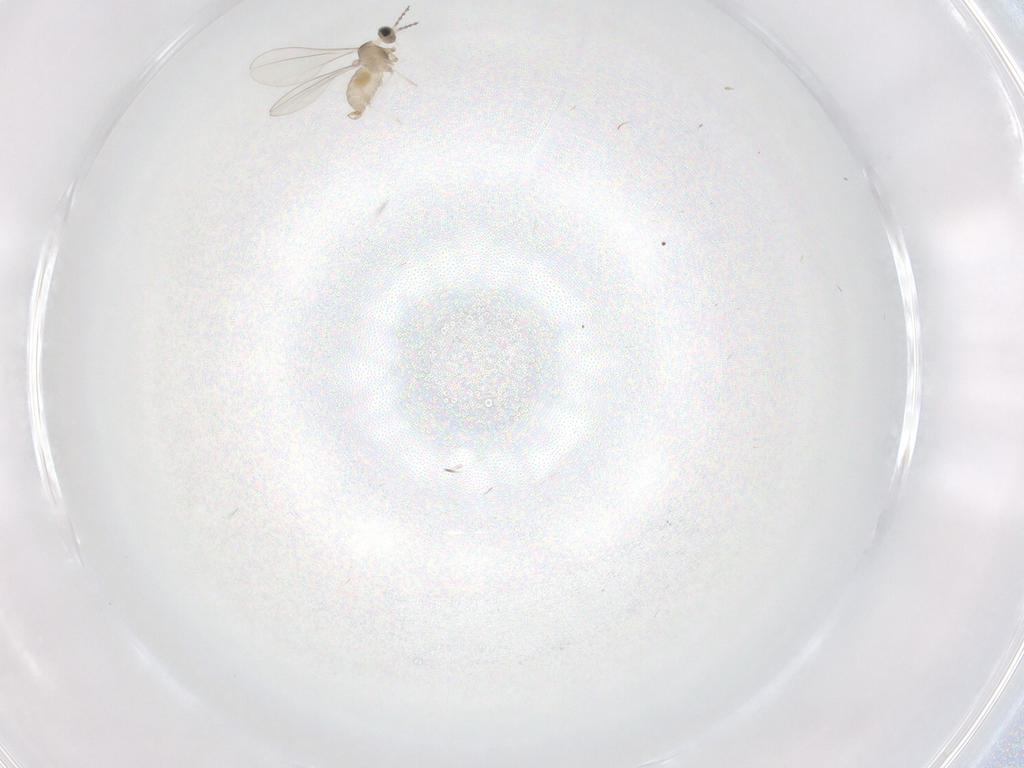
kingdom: Animalia
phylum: Arthropoda
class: Insecta
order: Diptera
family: Cecidomyiidae
